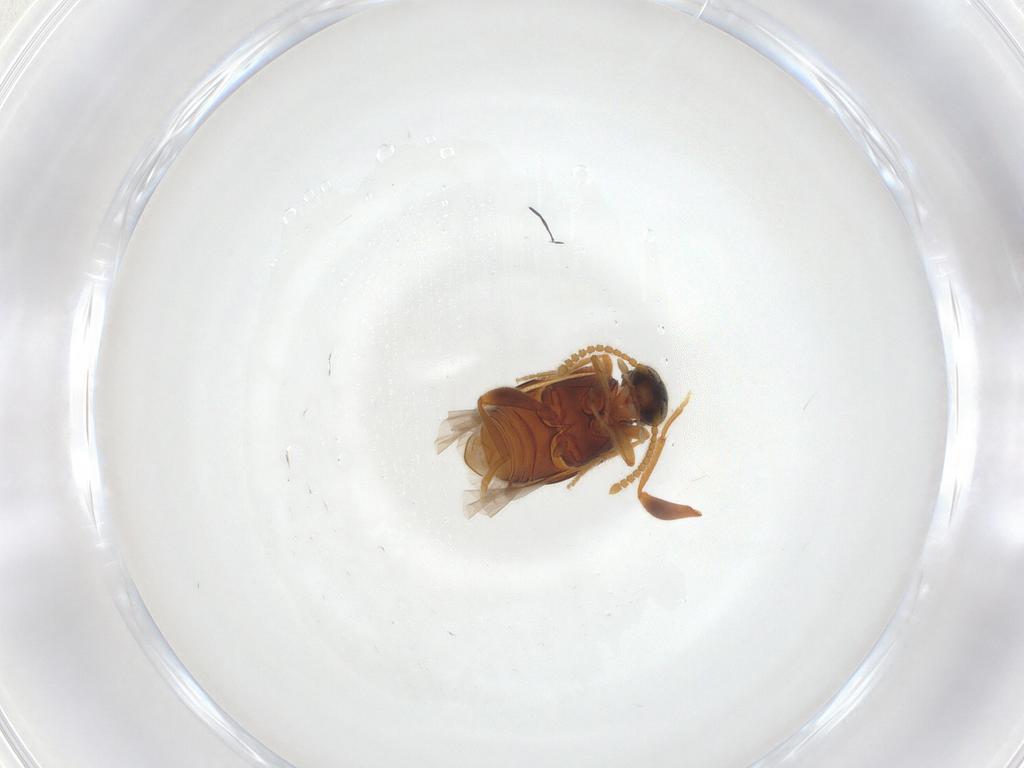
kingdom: Animalia
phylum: Arthropoda
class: Insecta
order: Coleoptera
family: Aderidae
